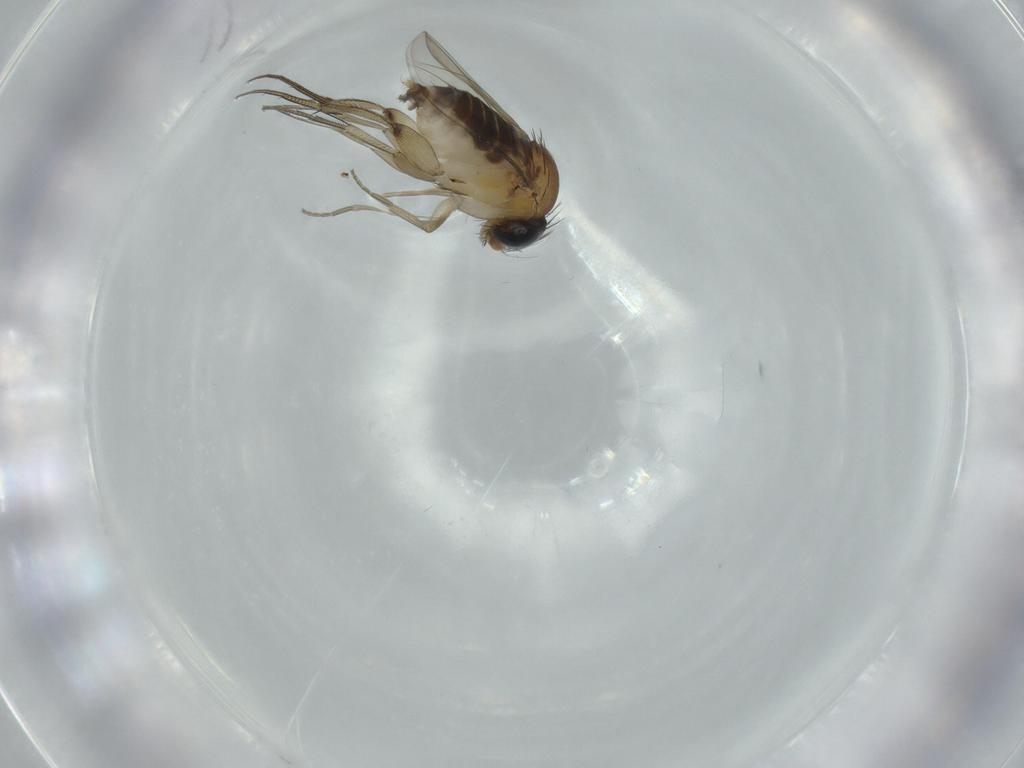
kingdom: Animalia
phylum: Arthropoda
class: Insecta
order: Diptera
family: Phoridae
